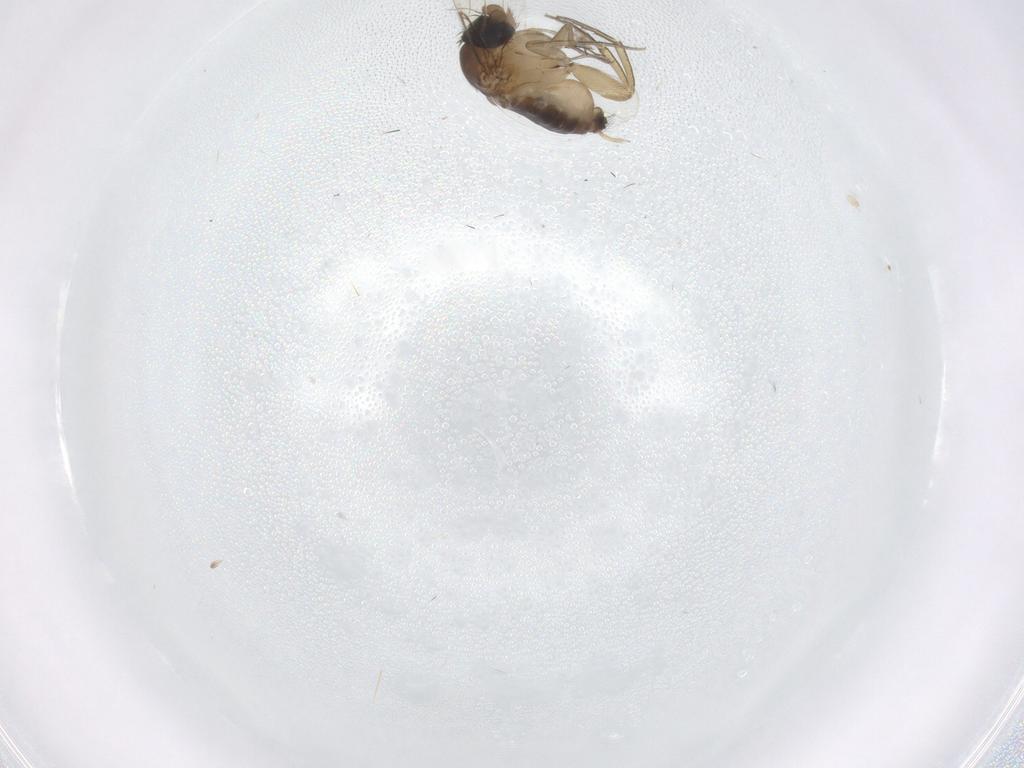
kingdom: Animalia
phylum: Arthropoda
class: Insecta
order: Diptera
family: Phoridae
